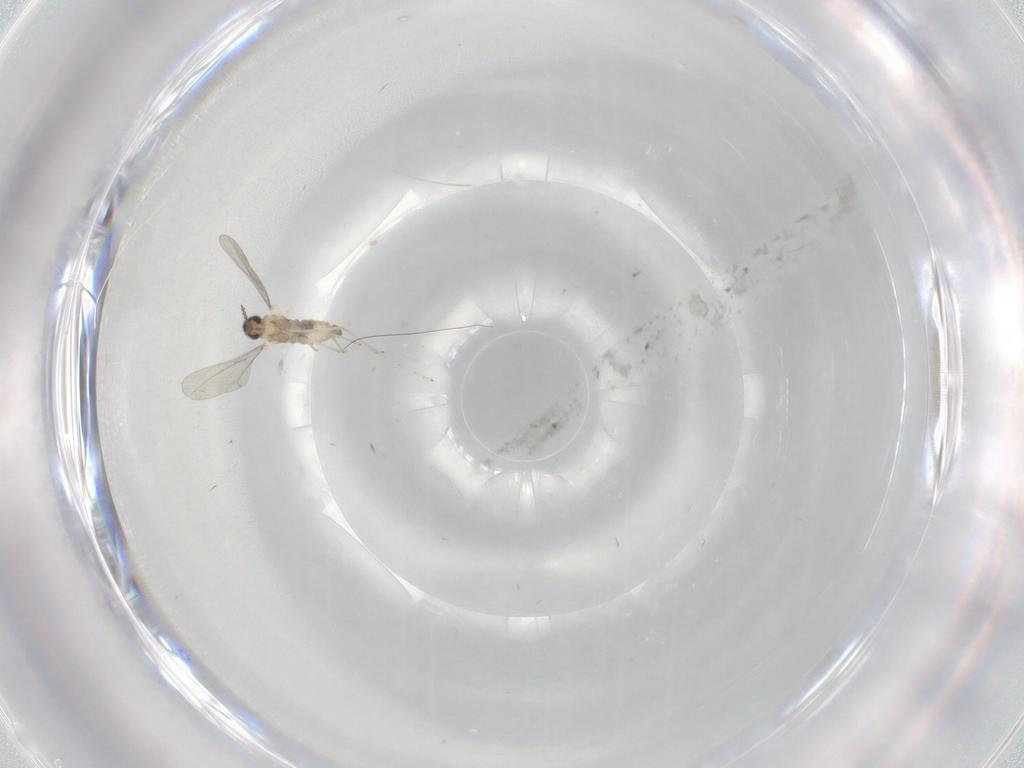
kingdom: Animalia
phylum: Arthropoda
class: Insecta
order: Diptera
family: Cecidomyiidae
